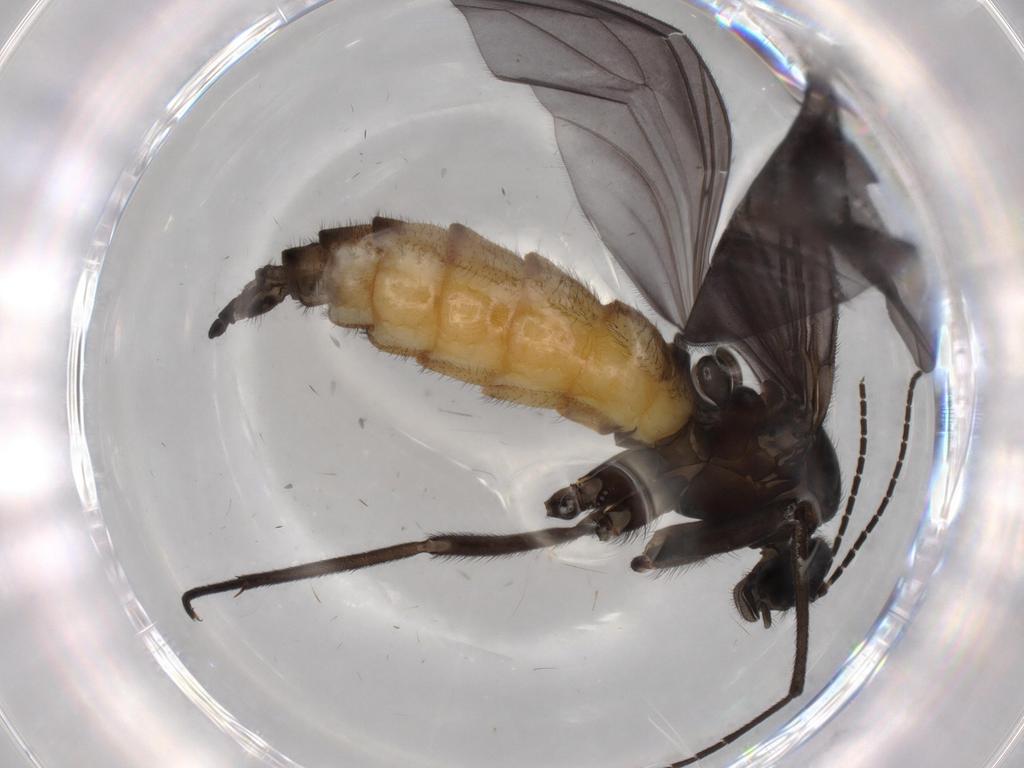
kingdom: Animalia
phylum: Arthropoda
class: Insecta
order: Diptera
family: Sciaridae
